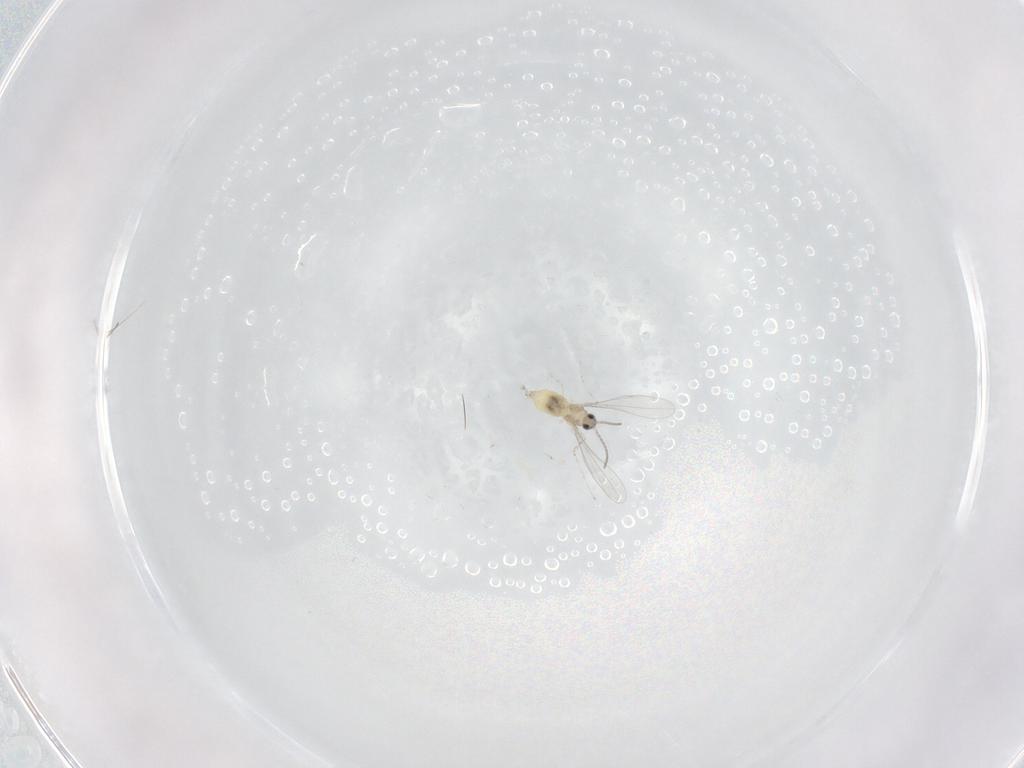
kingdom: Animalia
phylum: Arthropoda
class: Insecta
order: Diptera
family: Cecidomyiidae
